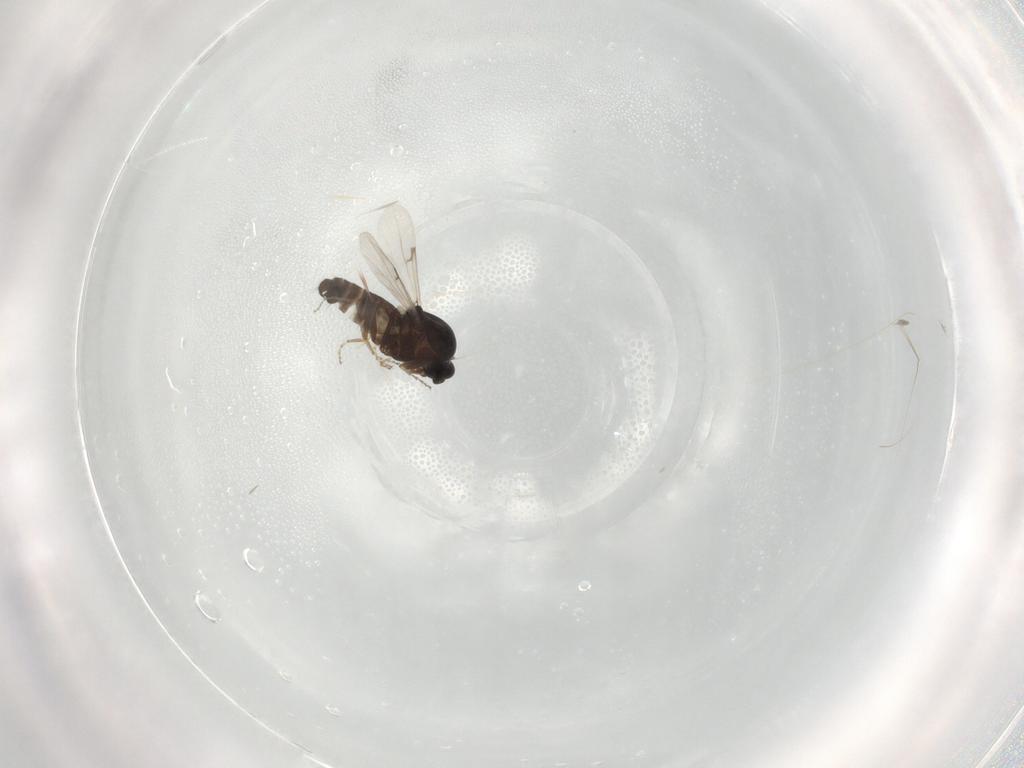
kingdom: Animalia
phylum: Arthropoda
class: Insecta
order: Diptera
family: Ceratopogonidae
